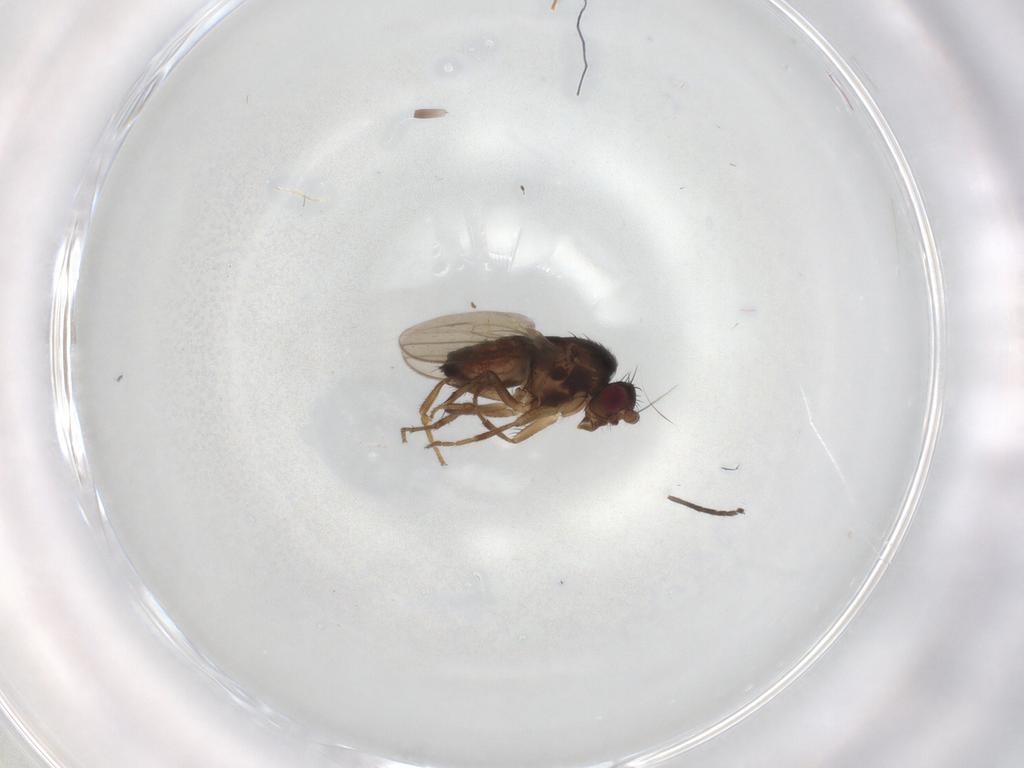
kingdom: Animalia
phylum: Arthropoda
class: Insecta
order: Diptera
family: Sphaeroceridae
